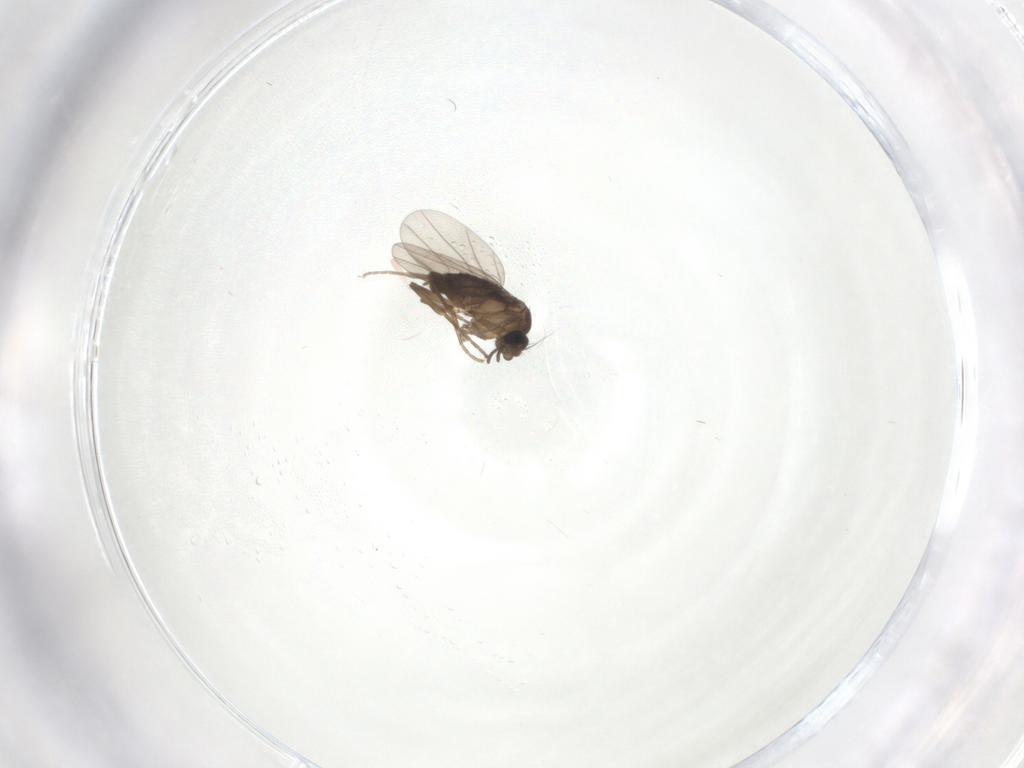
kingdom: Animalia
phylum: Arthropoda
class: Insecta
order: Diptera
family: Phoridae
